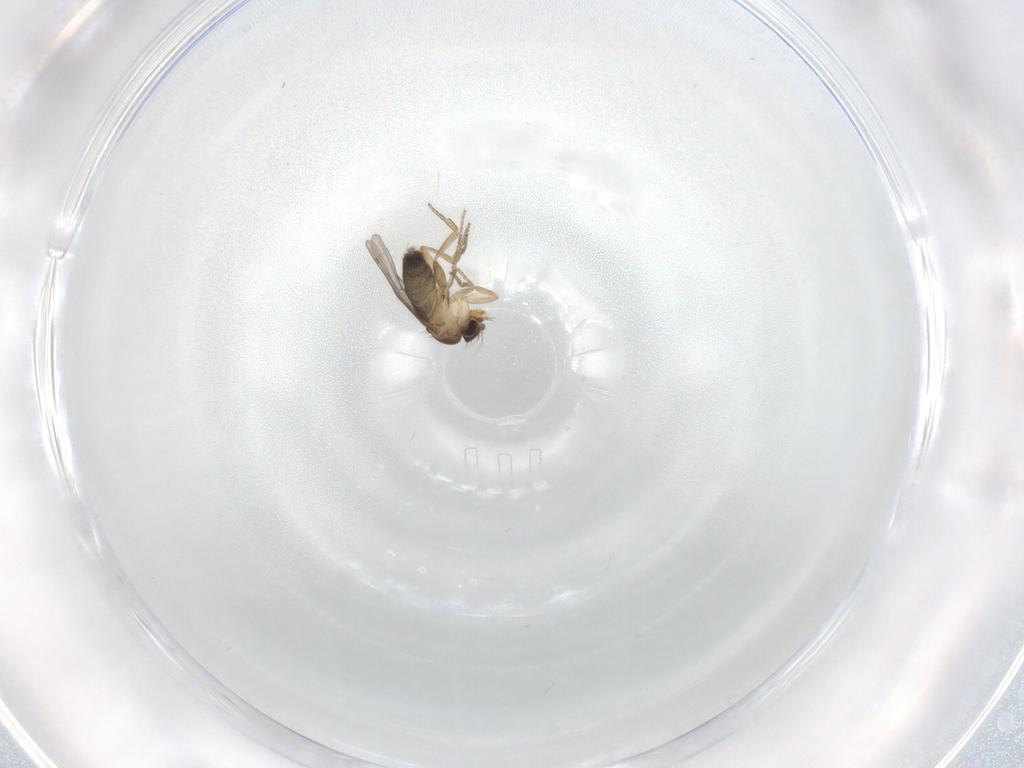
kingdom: Animalia
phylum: Arthropoda
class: Insecta
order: Diptera
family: Phoridae
